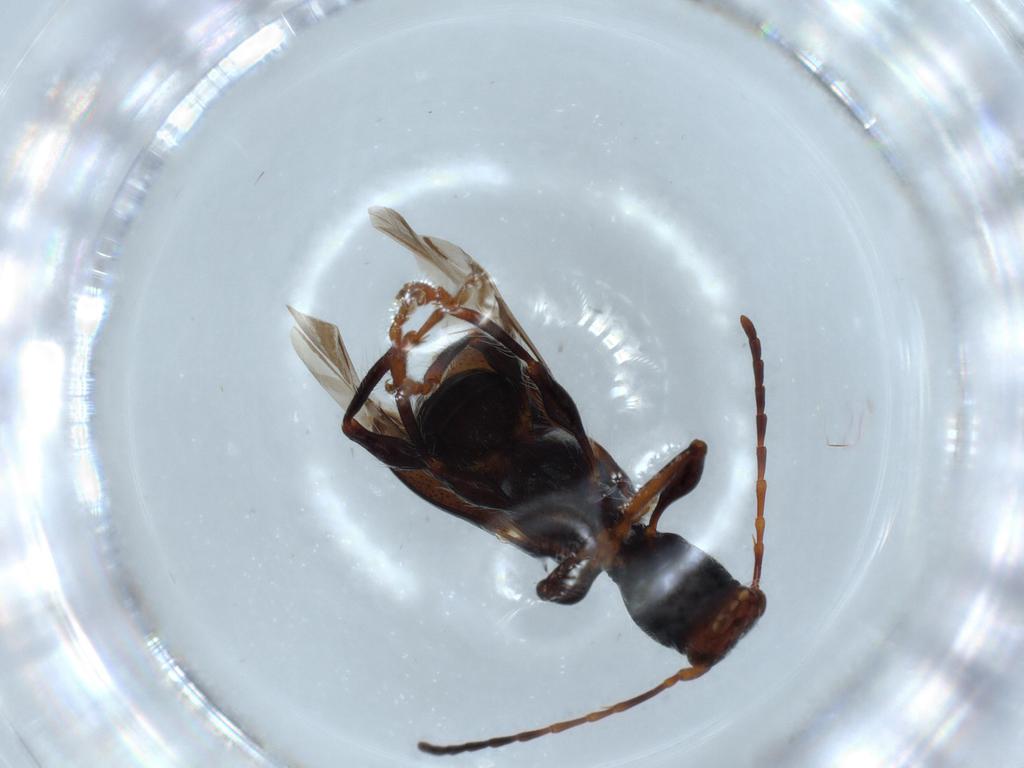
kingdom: Animalia
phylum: Arthropoda
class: Insecta
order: Coleoptera
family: Cerambycidae
